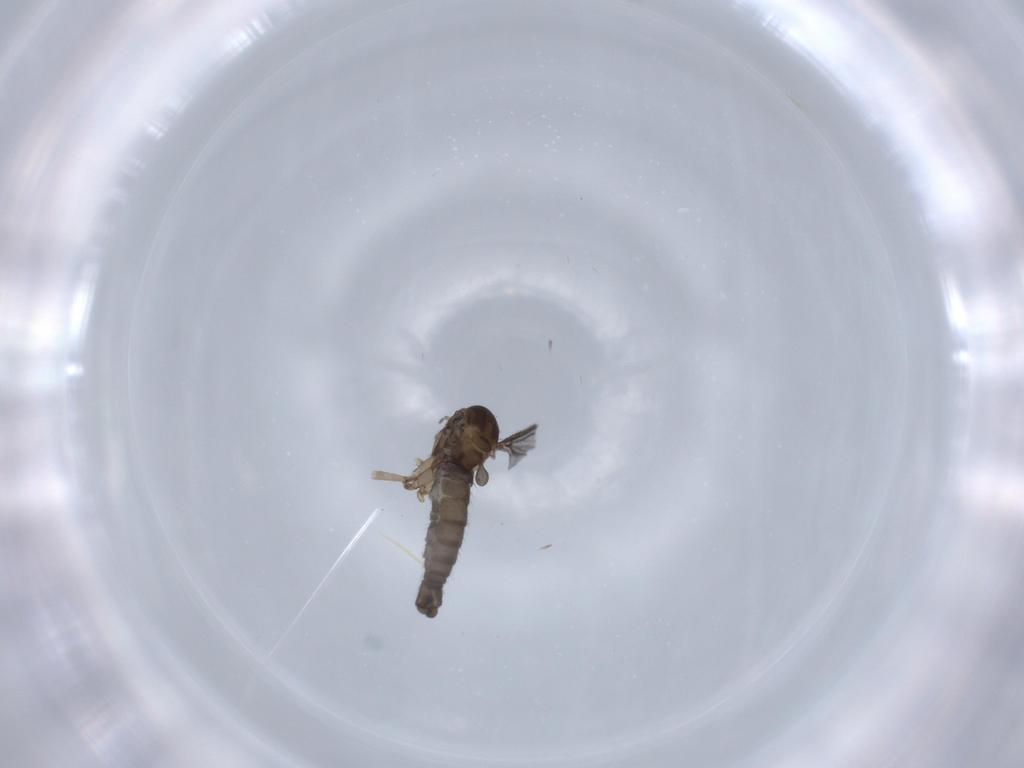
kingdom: Animalia
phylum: Arthropoda
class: Insecta
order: Diptera
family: Sciaridae
